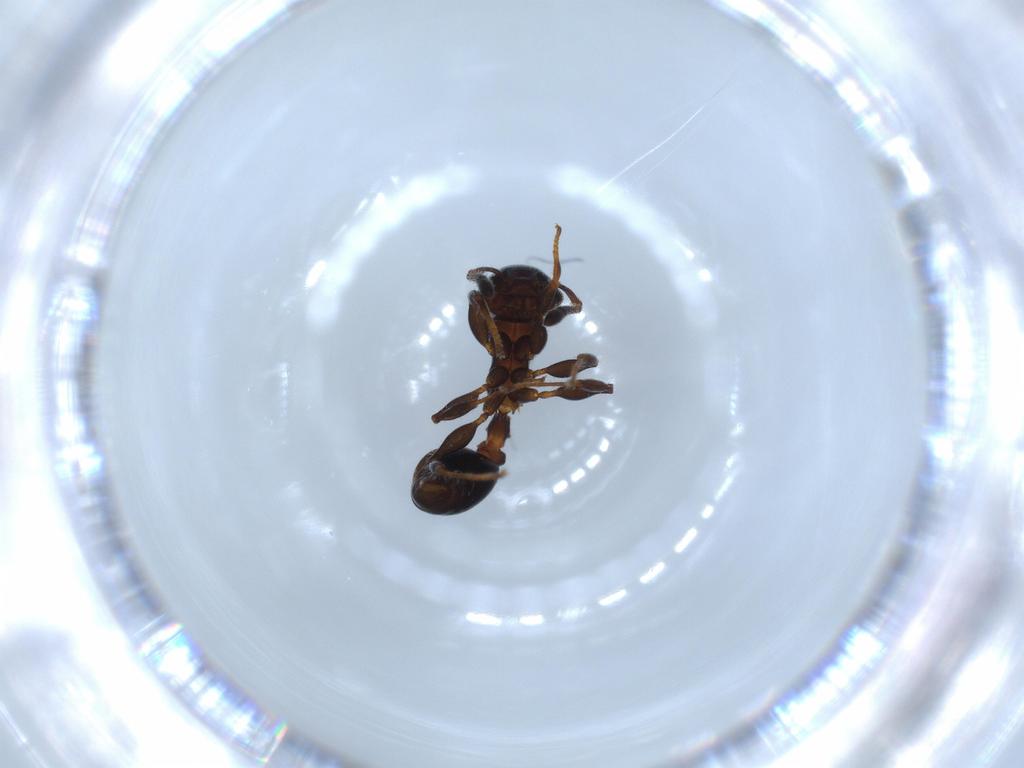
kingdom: Animalia
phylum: Arthropoda
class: Insecta
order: Hymenoptera
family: Formicidae
